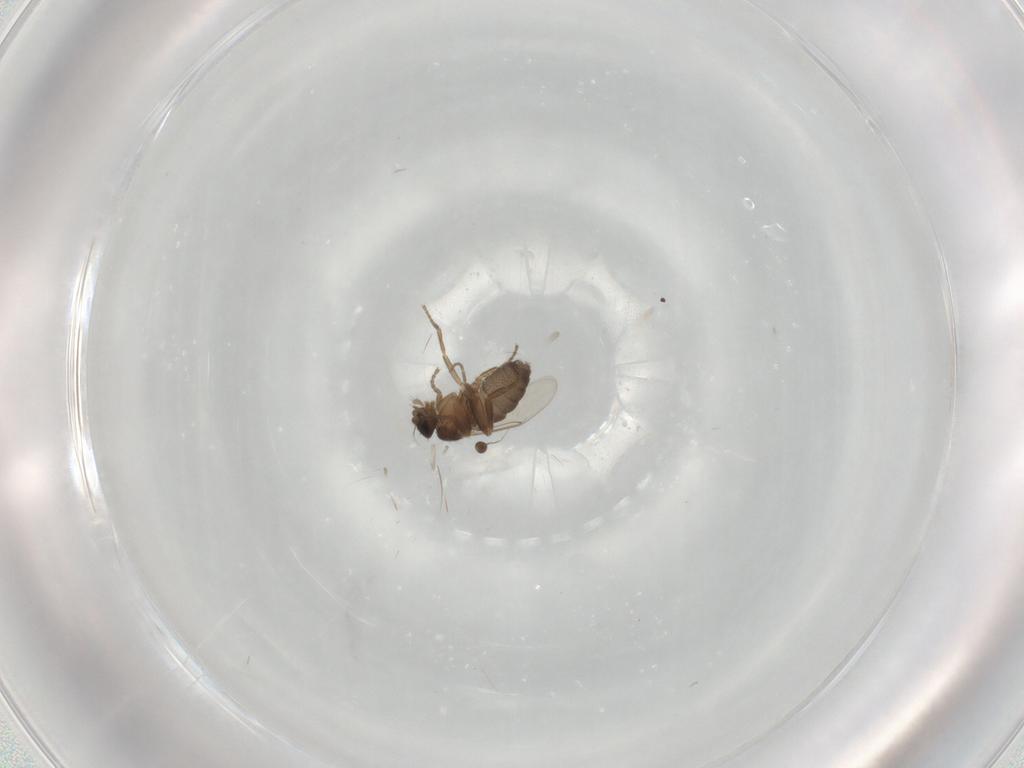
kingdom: Animalia
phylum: Arthropoda
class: Insecta
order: Diptera
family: Phoridae
